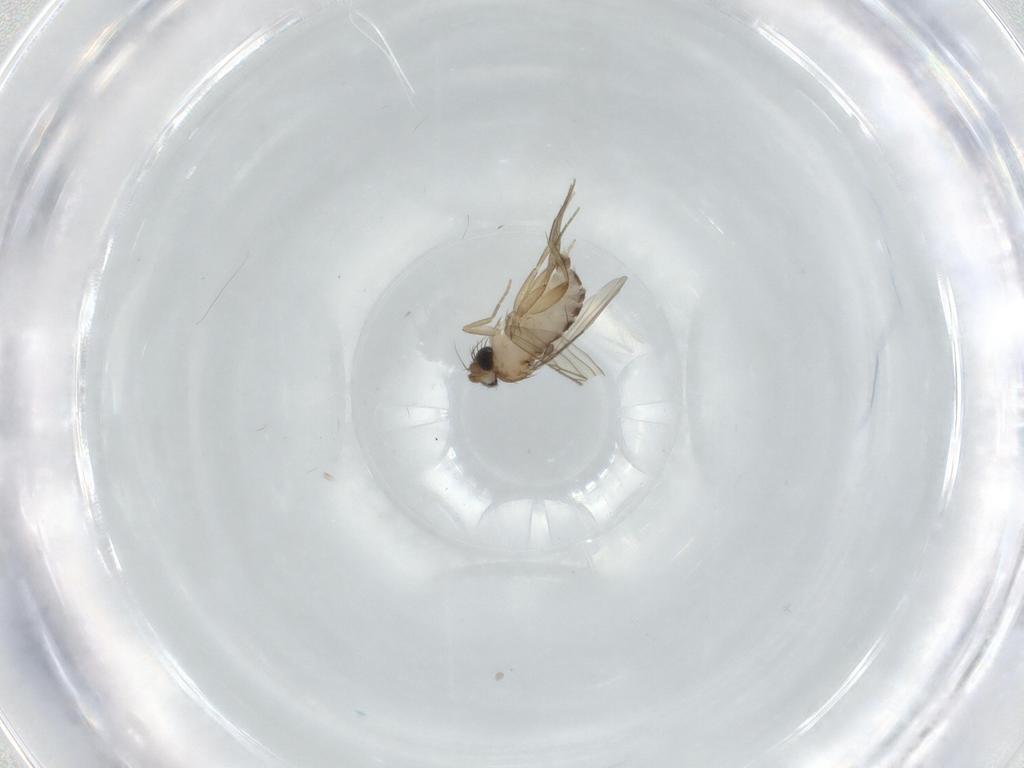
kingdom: Animalia
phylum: Arthropoda
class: Insecta
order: Diptera
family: Phoridae
